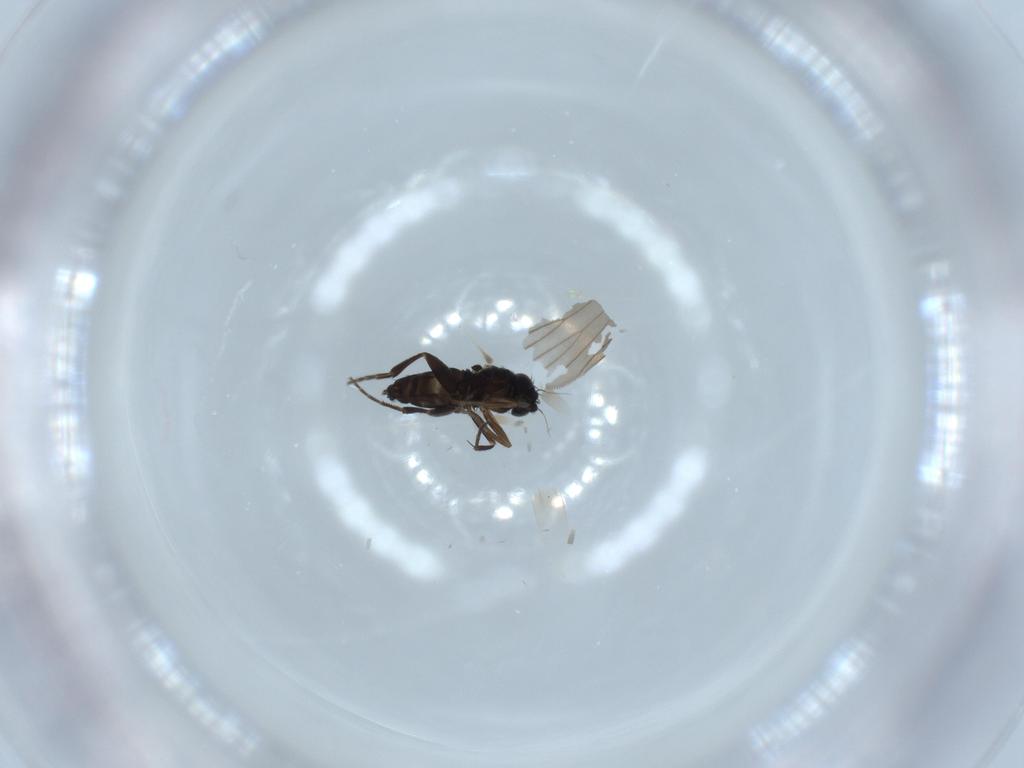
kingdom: Animalia
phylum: Arthropoda
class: Insecta
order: Diptera
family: Phoridae
